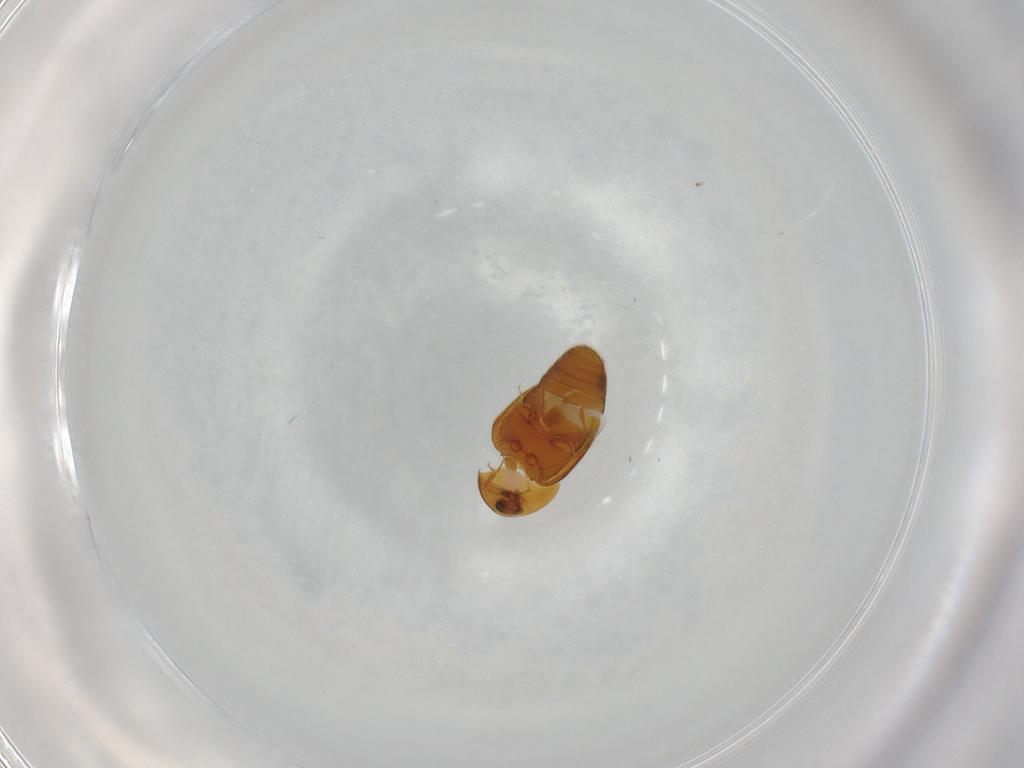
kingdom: Animalia
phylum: Arthropoda
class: Insecta
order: Coleoptera
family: Corylophidae
